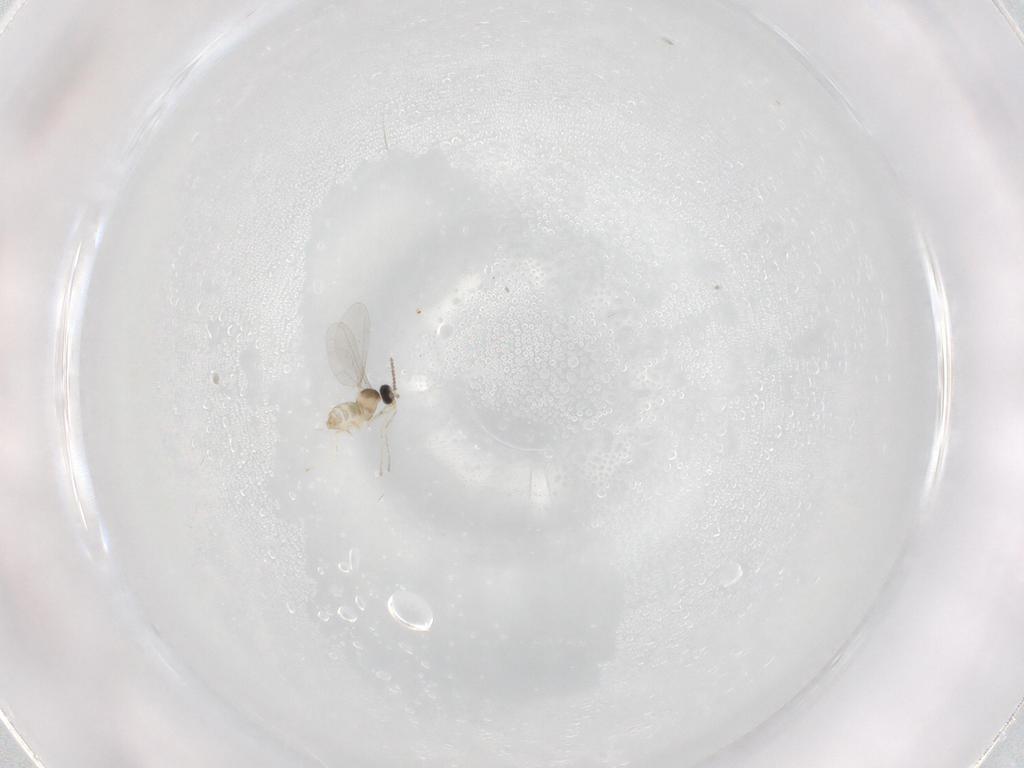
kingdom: Animalia
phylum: Arthropoda
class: Insecta
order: Diptera
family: Cecidomyiidae
